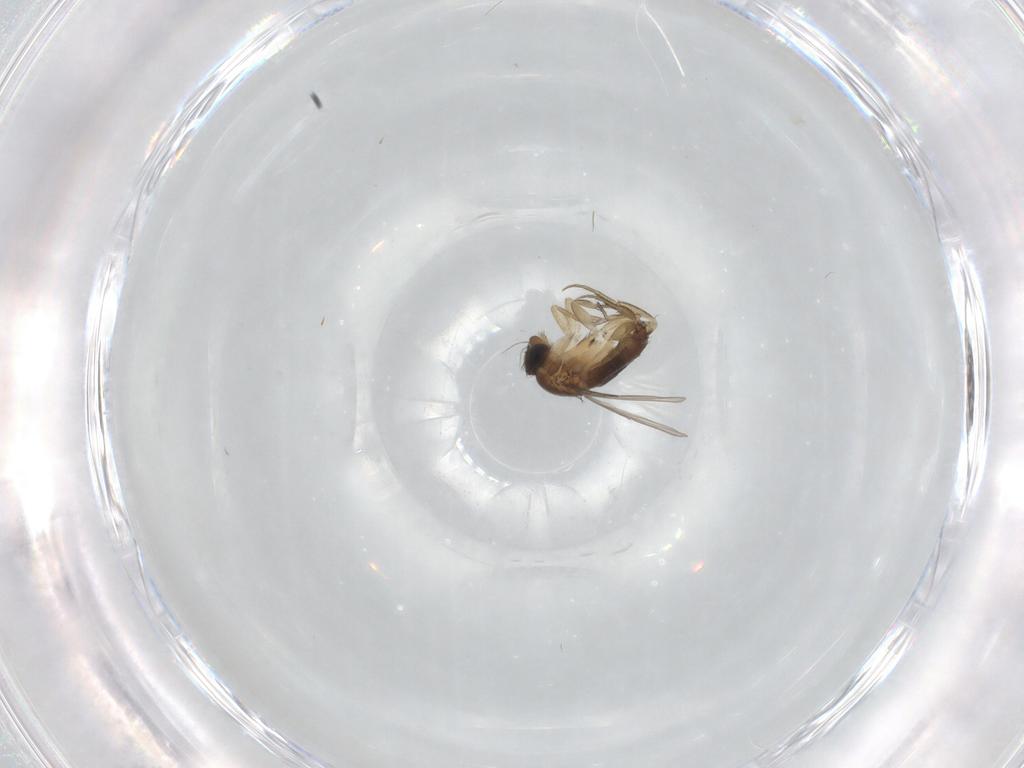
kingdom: Animalia
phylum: Arthropoda
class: Insecta
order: Diptera
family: Phoridae
